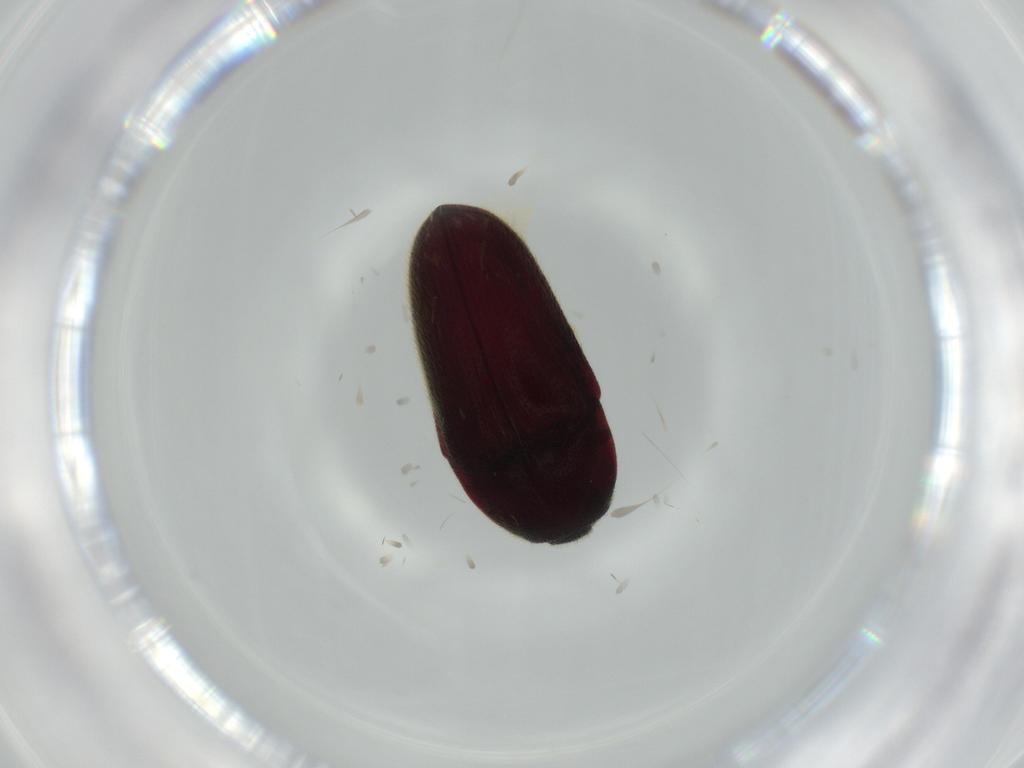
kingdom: Animalia
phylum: Arthropoda
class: Insecta
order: Coleoptera
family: Throscidae
